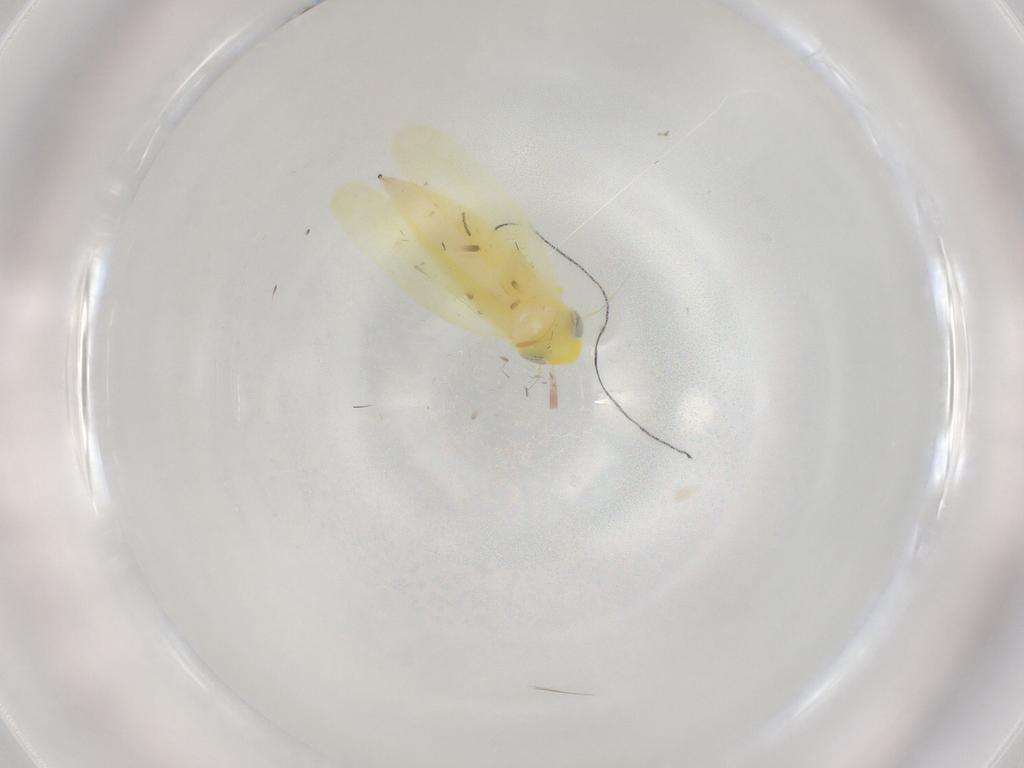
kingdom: Animalia
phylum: Arthropoda
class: Insecta
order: Hemiptera
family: Cicadellidae
